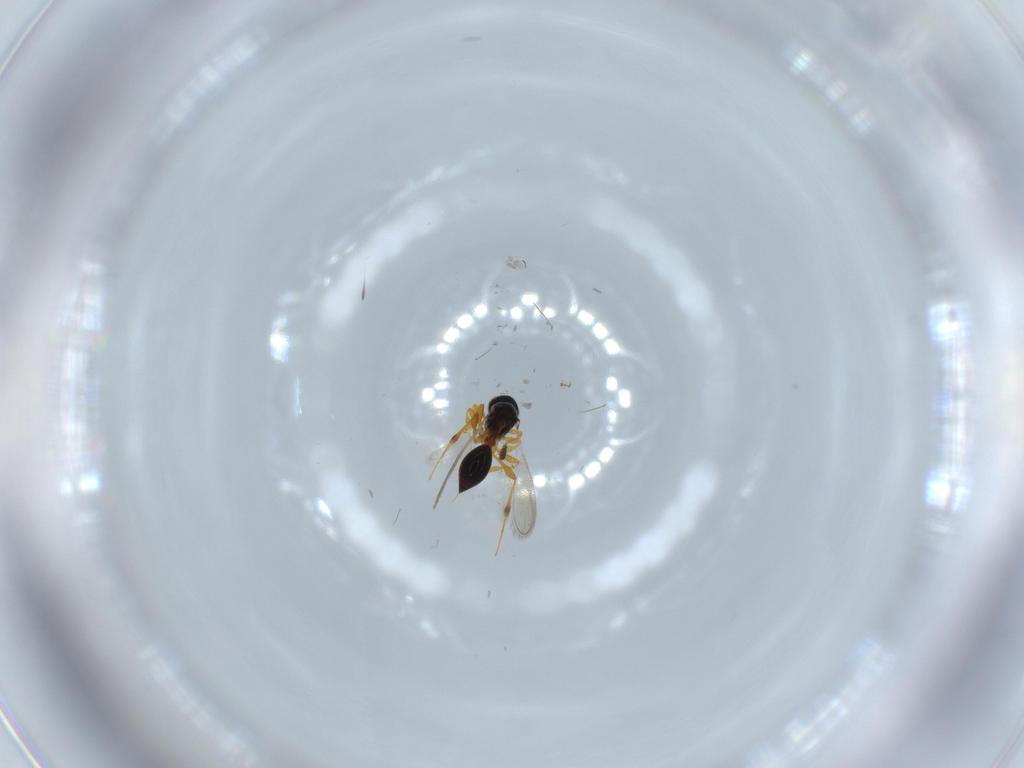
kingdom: Animalia
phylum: Arthropoda
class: Insecta
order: Hymenoptera
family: Platygastridae
